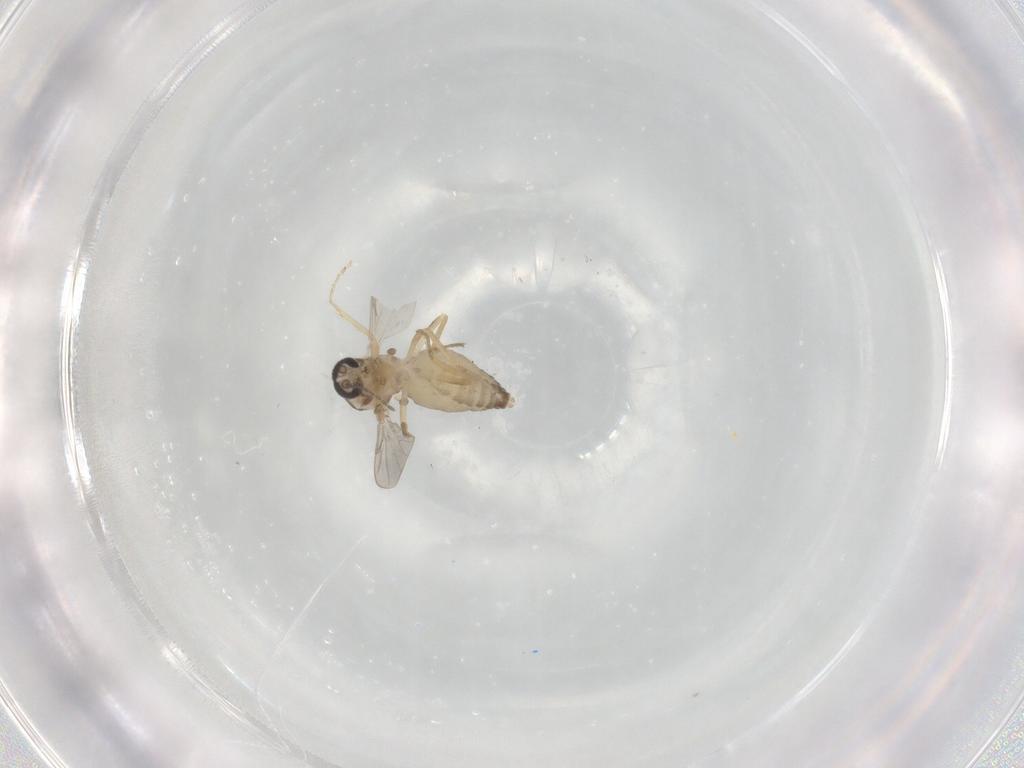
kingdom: Animalia
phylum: Arthropoda
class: Insecta
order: Diptera
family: Ceratopogonidae
